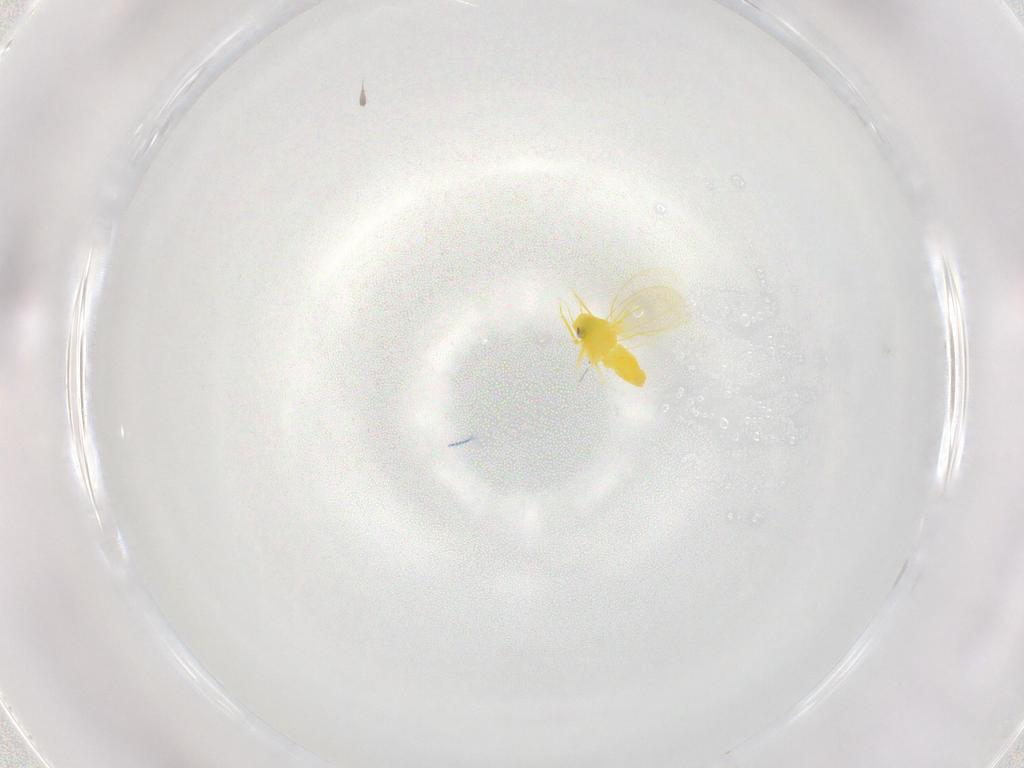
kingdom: Animalia
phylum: Arthropoda
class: Insecta
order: Hemiptera
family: Aleyrodidae
